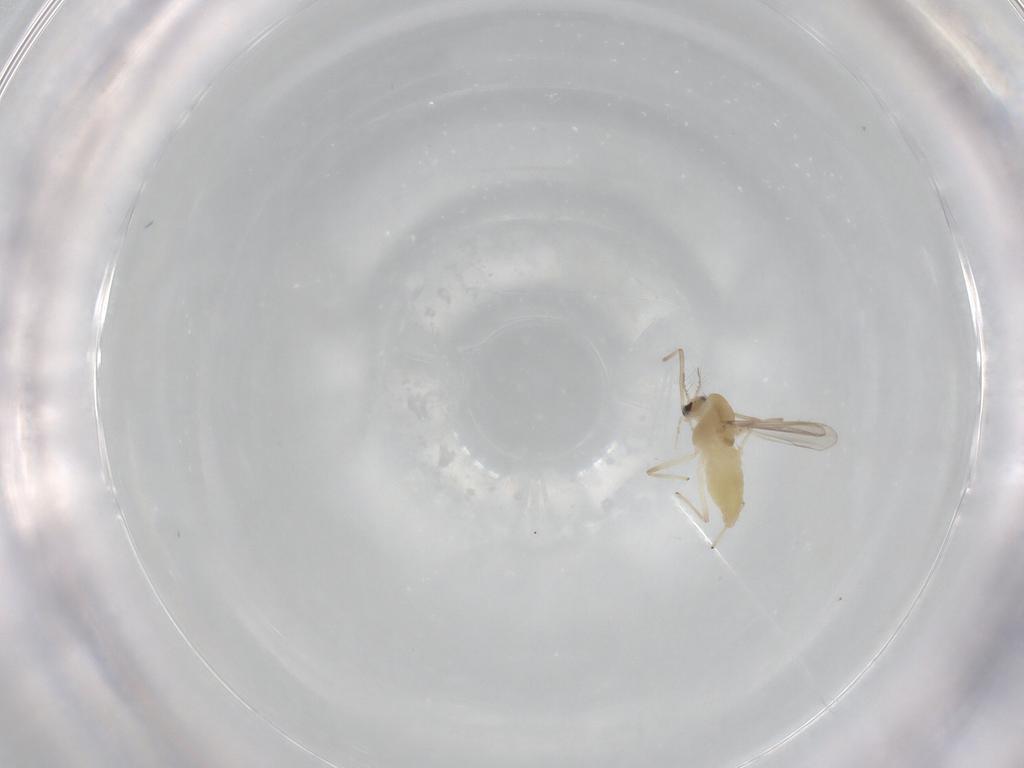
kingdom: Animalia
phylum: Arthropoda
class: Insecta
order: Diptera
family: Chironomidae
